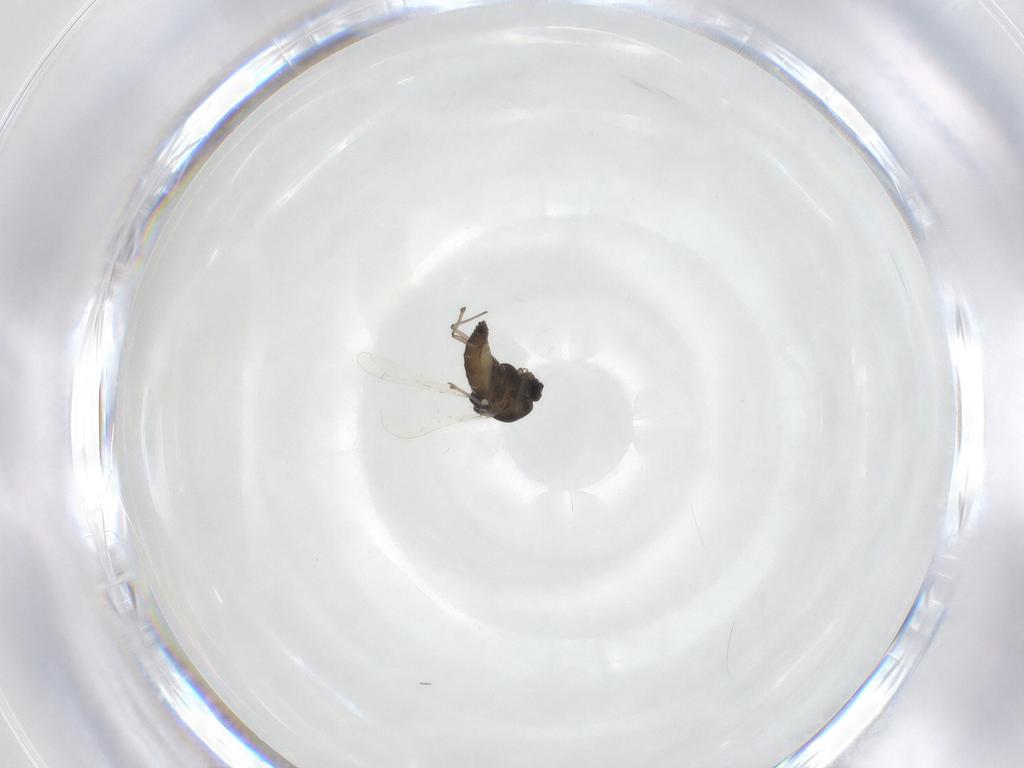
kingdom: Animalia
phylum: Arthropoda
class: Insecta
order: Diptera
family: Chironomidae
